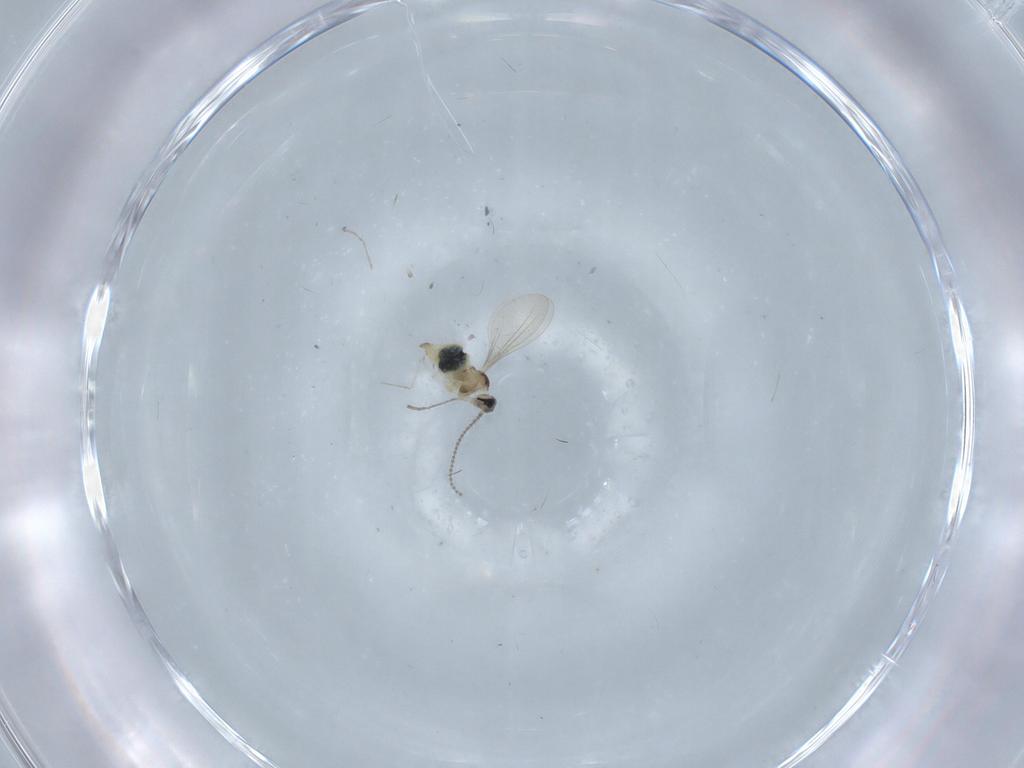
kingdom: Animalia
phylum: Arthropoda
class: Insecta
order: Diptera
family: Cecidomyiidae
